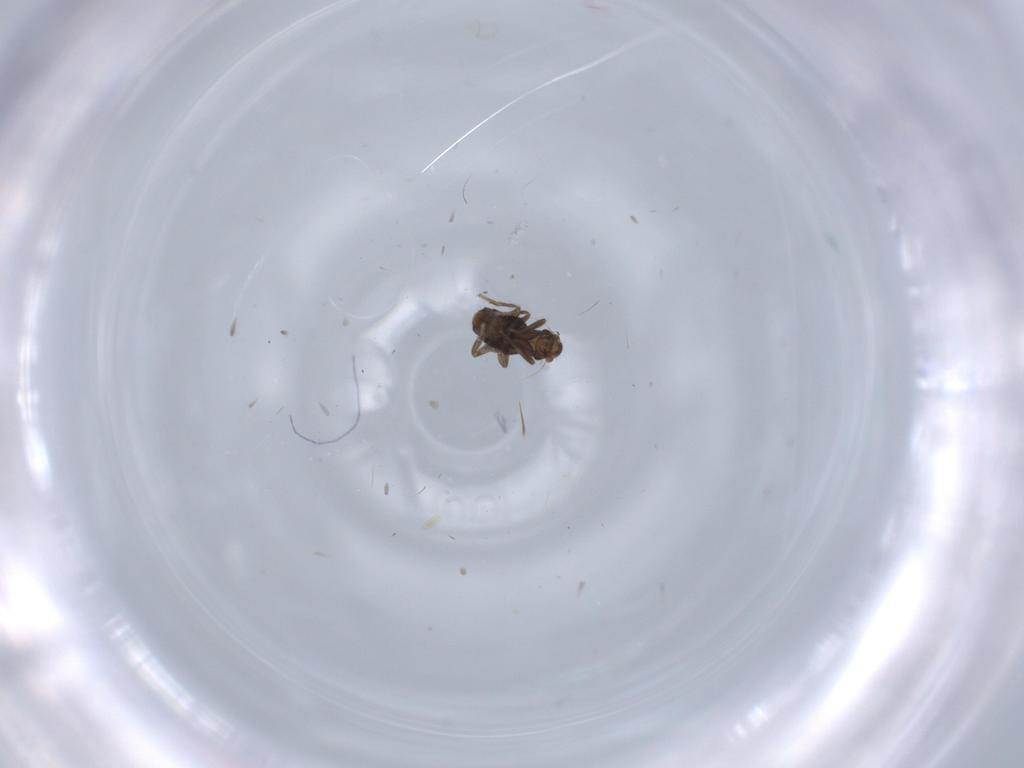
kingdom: Animalia
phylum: Arthropoda
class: Insecta
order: Diptera
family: Phoridae
